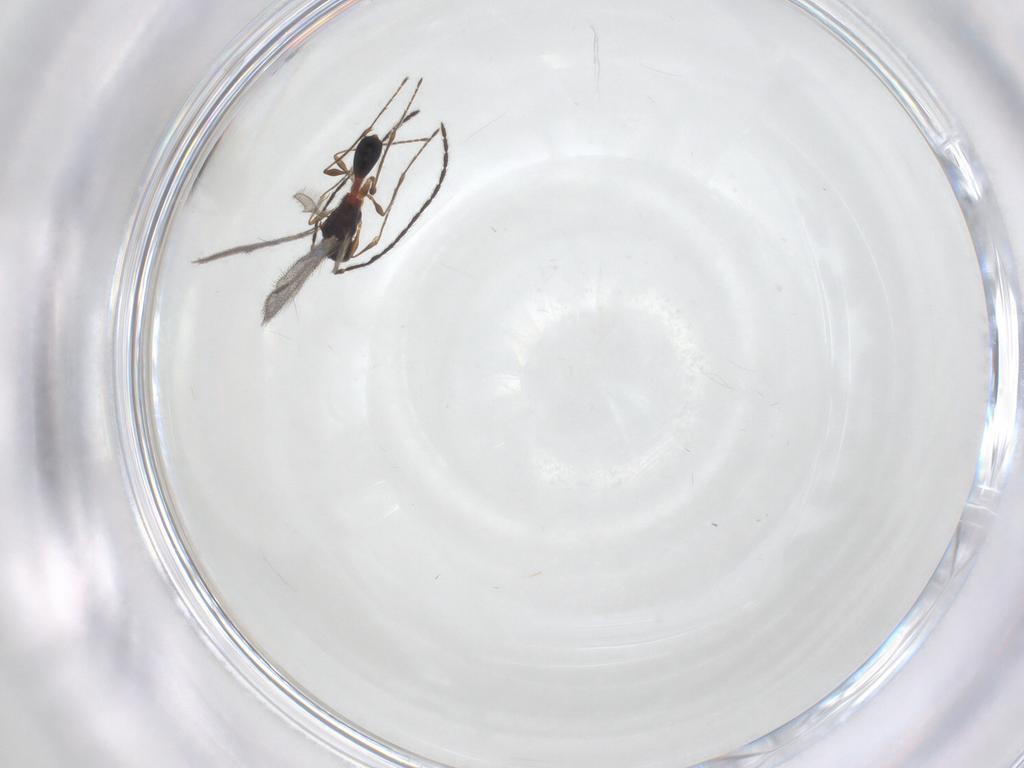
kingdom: Animalia
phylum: Arthropoda
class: Insecta
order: Hymenoptera
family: Diapriidae
